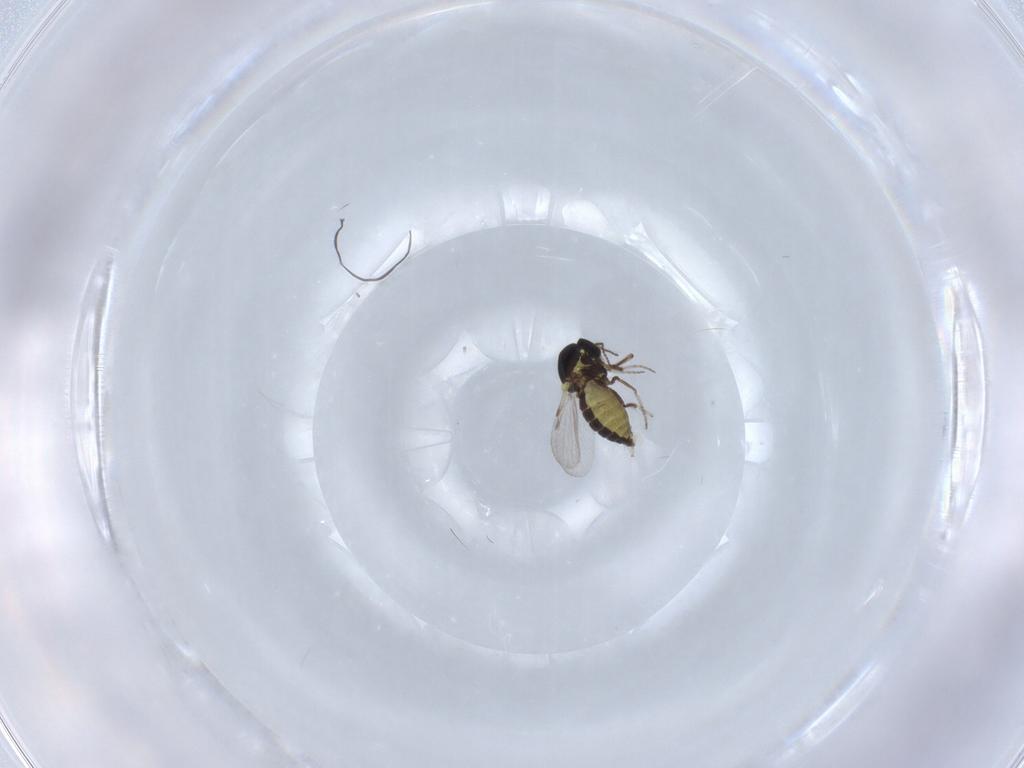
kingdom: Animalia
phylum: Arthropoda
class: Insecta
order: Diptera
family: Ceratopogonidae
